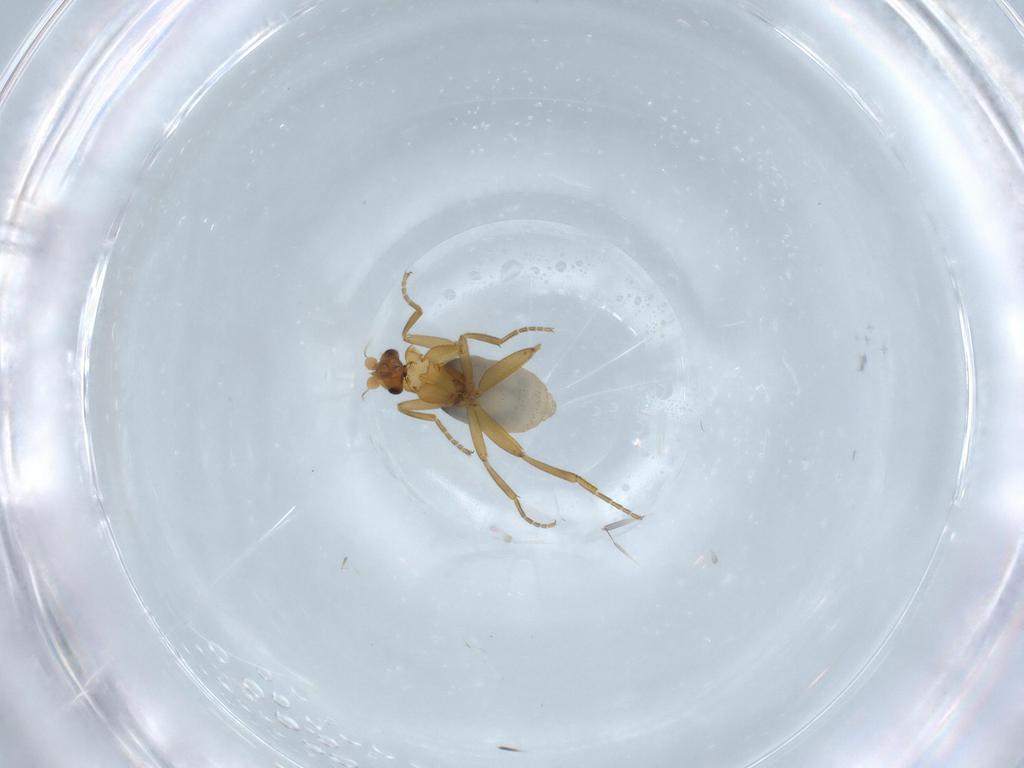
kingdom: Animalia
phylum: Arthropoda
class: Insecta
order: Diptera
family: Phoridae
